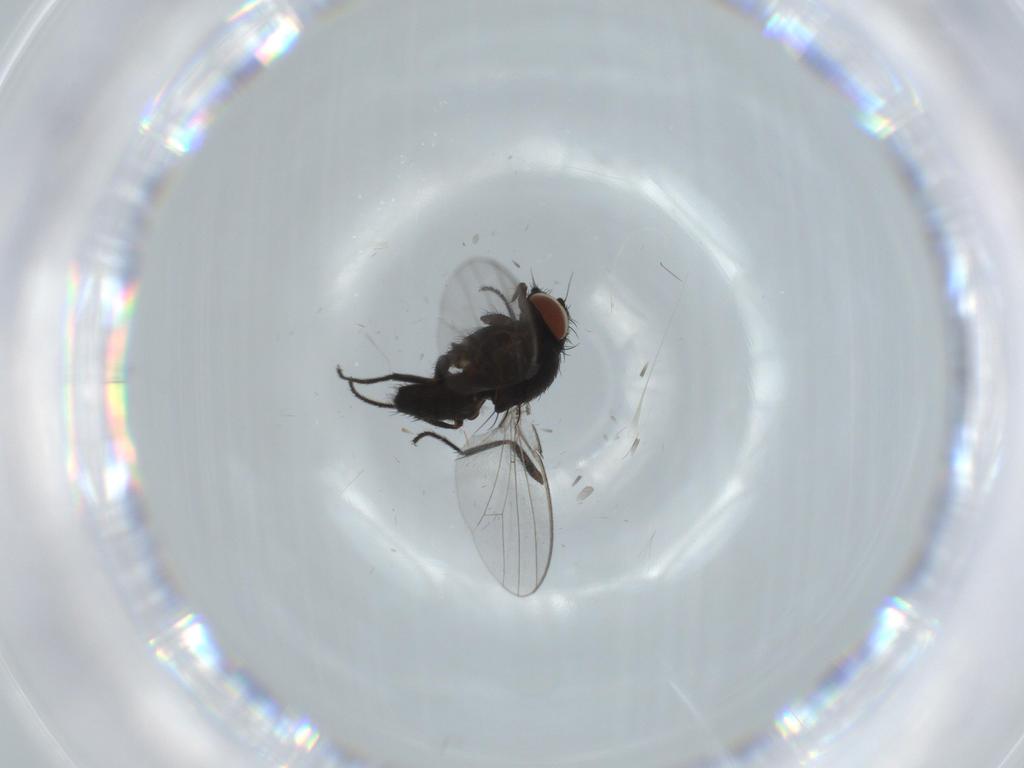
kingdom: Animalia
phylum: Arthropoda
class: Insecta
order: Diptera
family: Milichiidae
